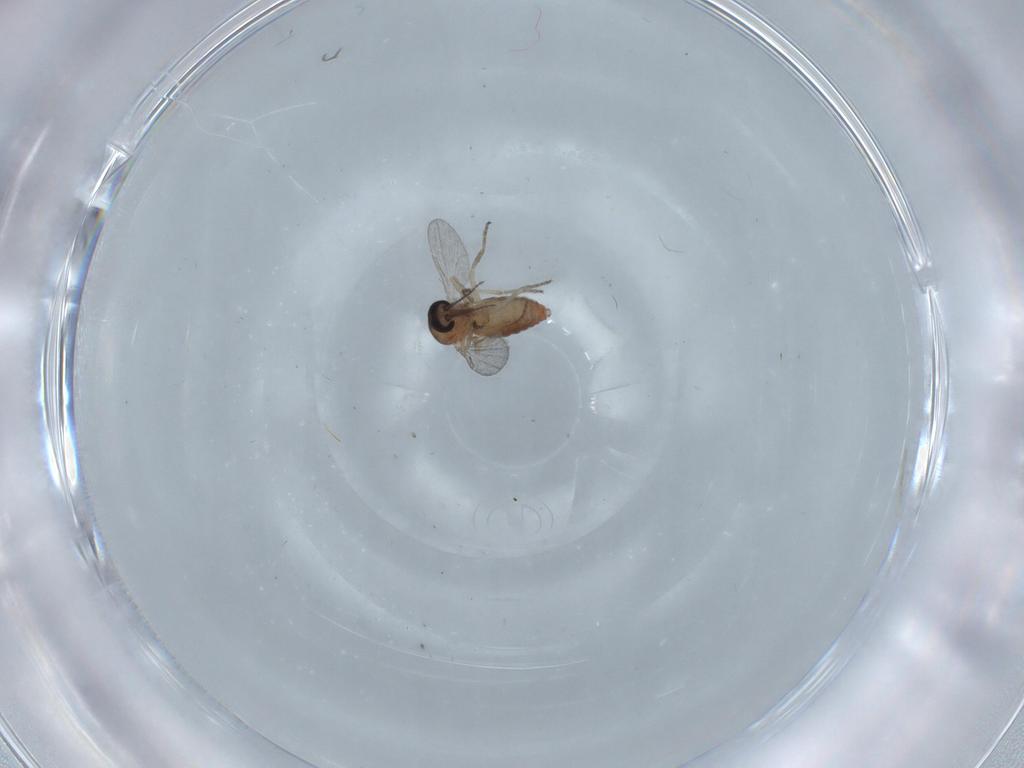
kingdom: Animalia
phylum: Arthropoda
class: Insecta
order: Diptera
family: Ceratopogonidae
